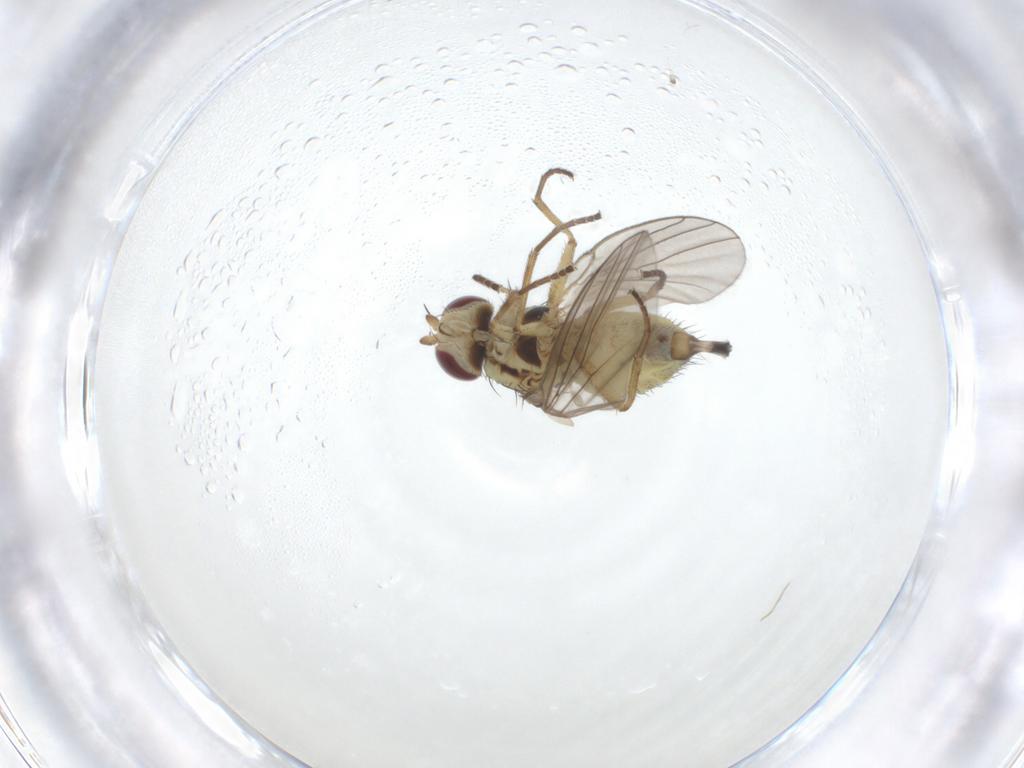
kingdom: Animalia
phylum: Arthropoda
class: Insecta
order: Diptera
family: Agromyzidae
